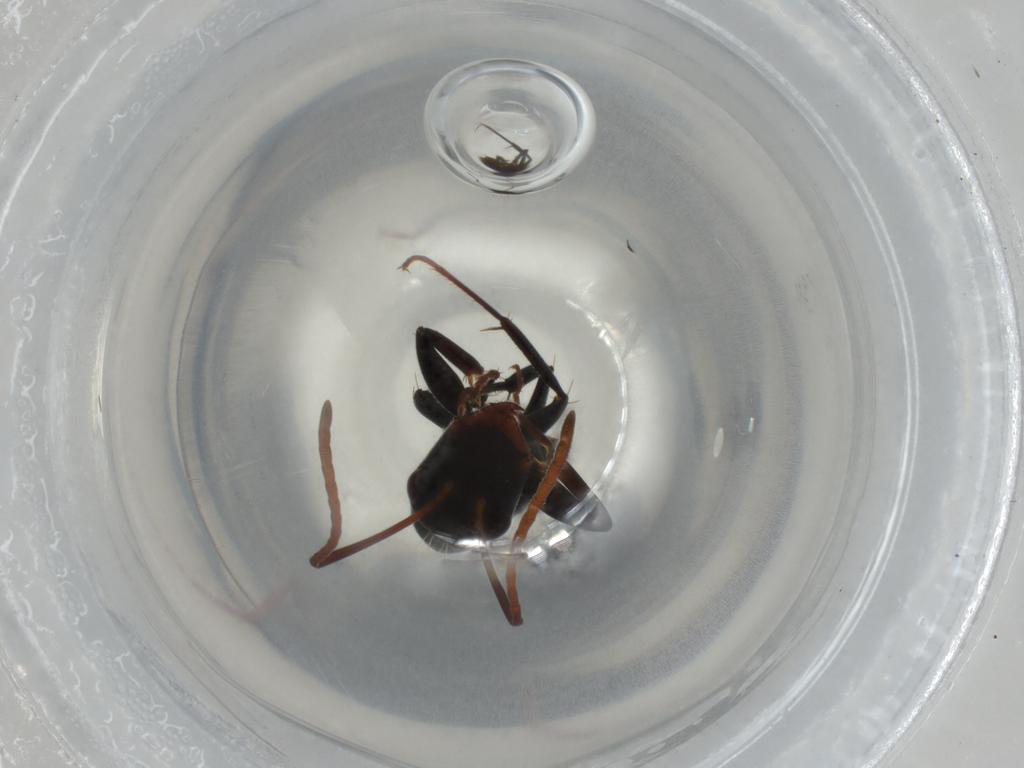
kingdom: Animalia
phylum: Arthropoda
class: Insecta
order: Hymenoptera
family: Formicidae
